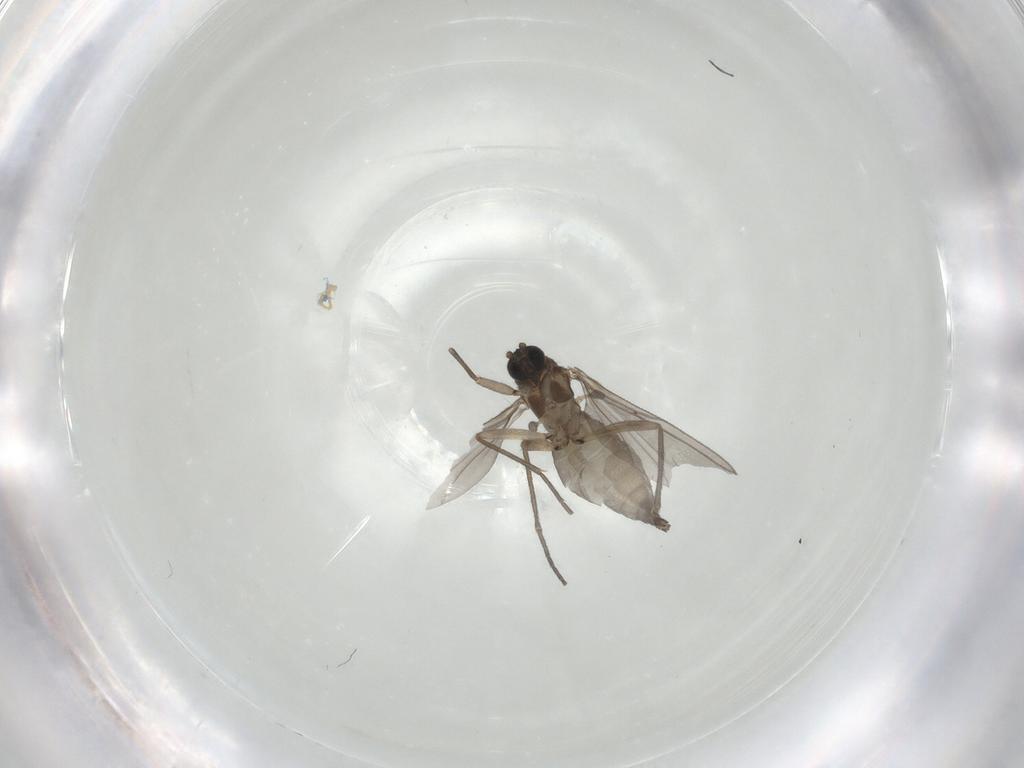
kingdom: Animalia
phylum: Arthropoda
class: Insecta
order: Diptera
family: Sciaridae
